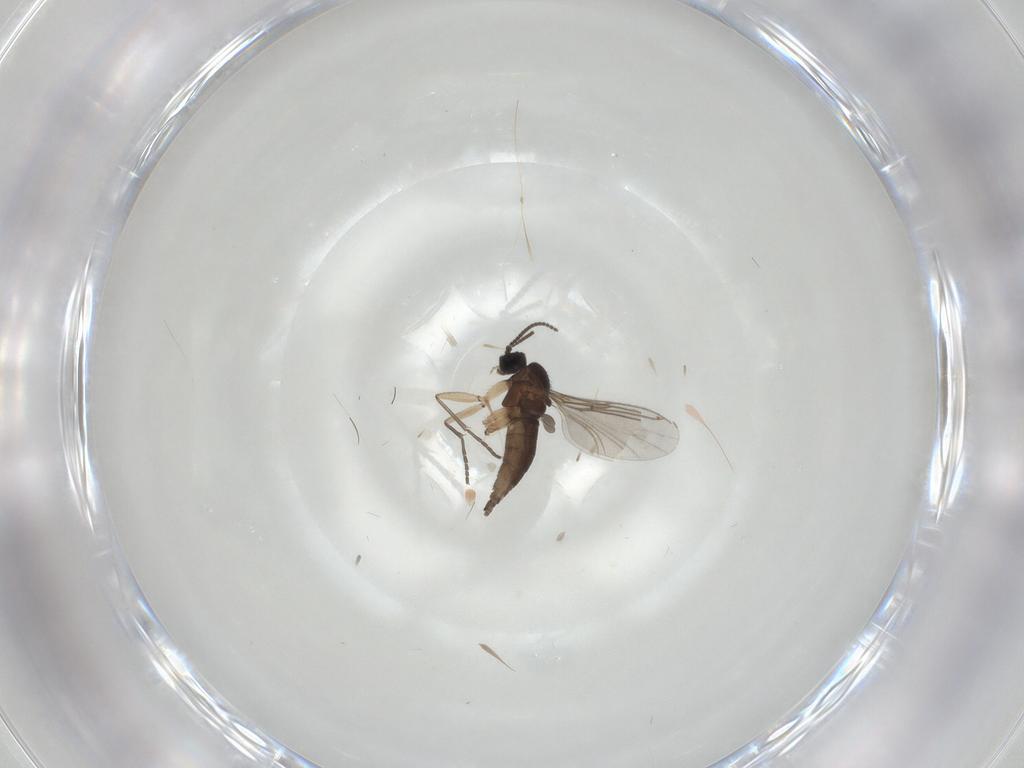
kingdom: Animalia
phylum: Arthropoda
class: Insecta
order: Diptera
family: Sciaridae
